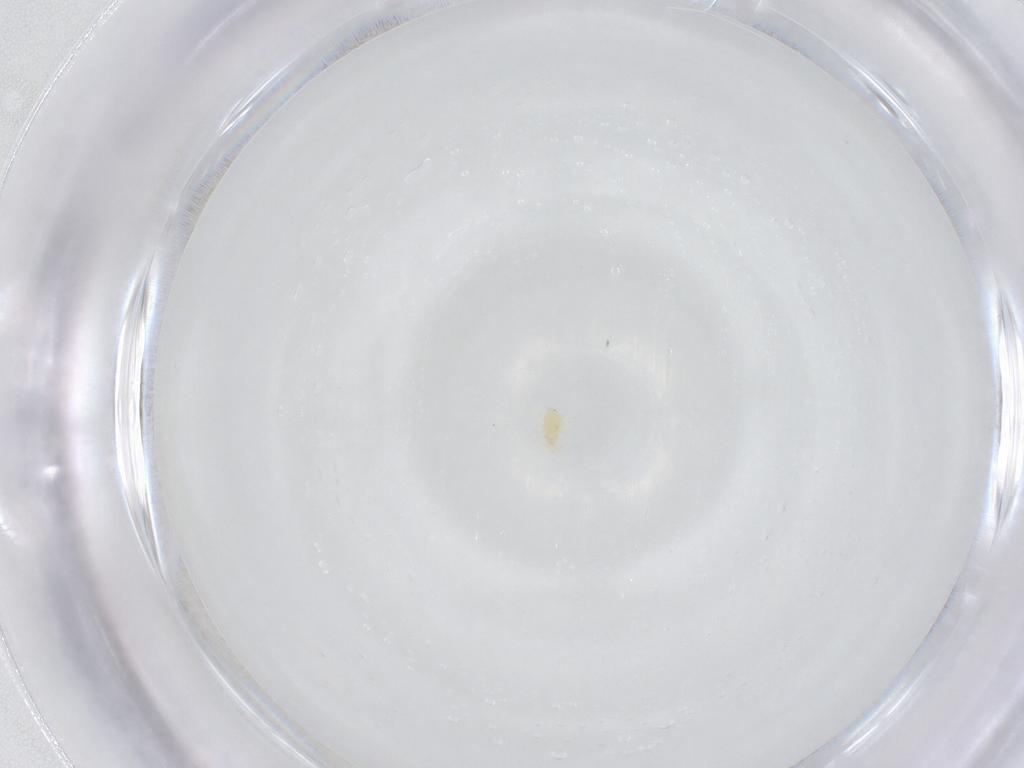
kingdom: Animalia
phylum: Arthropoda
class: Arachnida
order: Mesostigmata
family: Phytoseiidae
